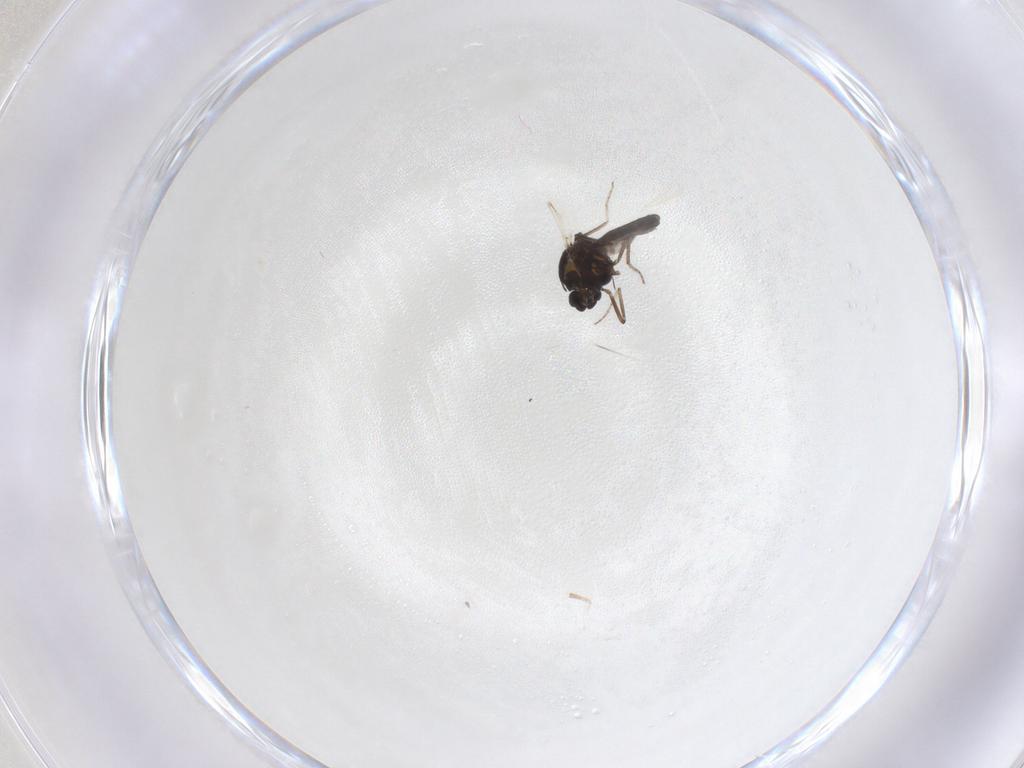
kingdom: Animalia
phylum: Arthropoda
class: Insecta
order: Diptera
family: Ceratopogonidae
